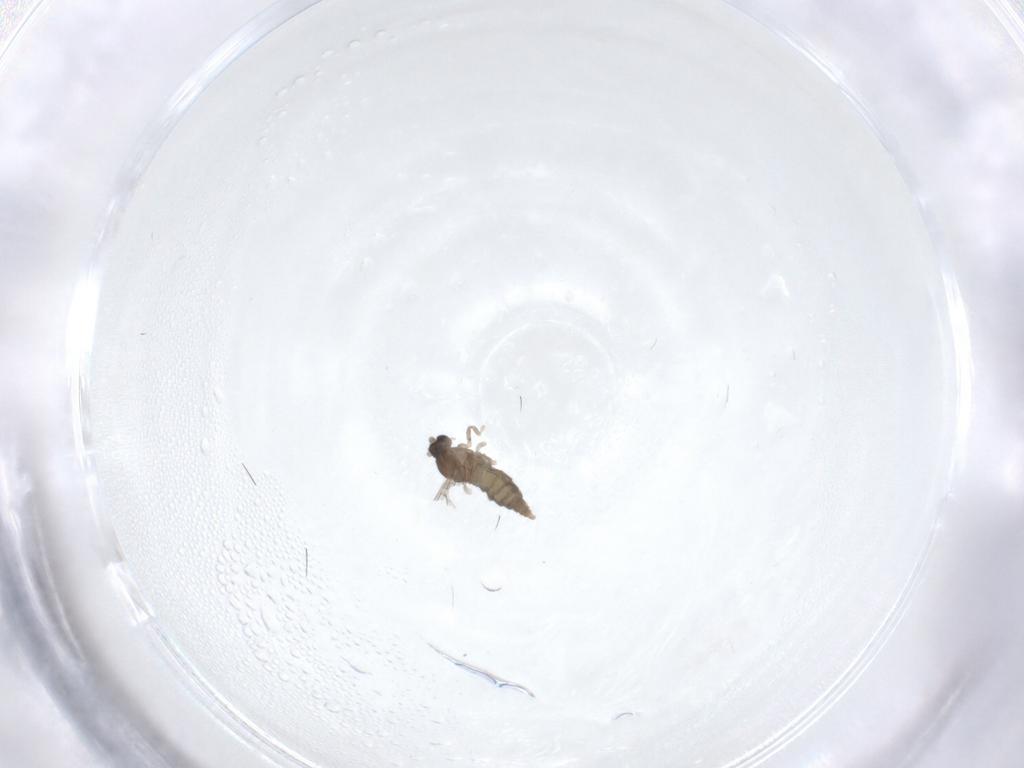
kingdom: Animalia
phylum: Arthropoda
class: Insecta
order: Diptera
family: Cecidomyiidae
